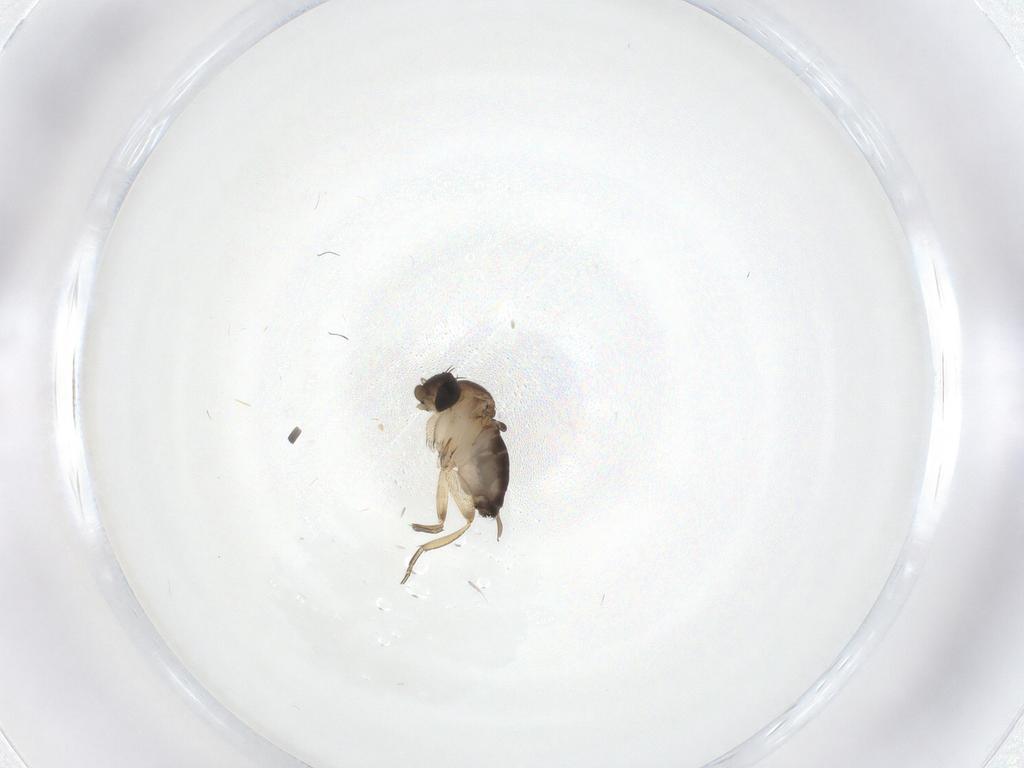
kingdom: Animalia
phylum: Arthropoda
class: Insecta
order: Diptera
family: Phoridae
